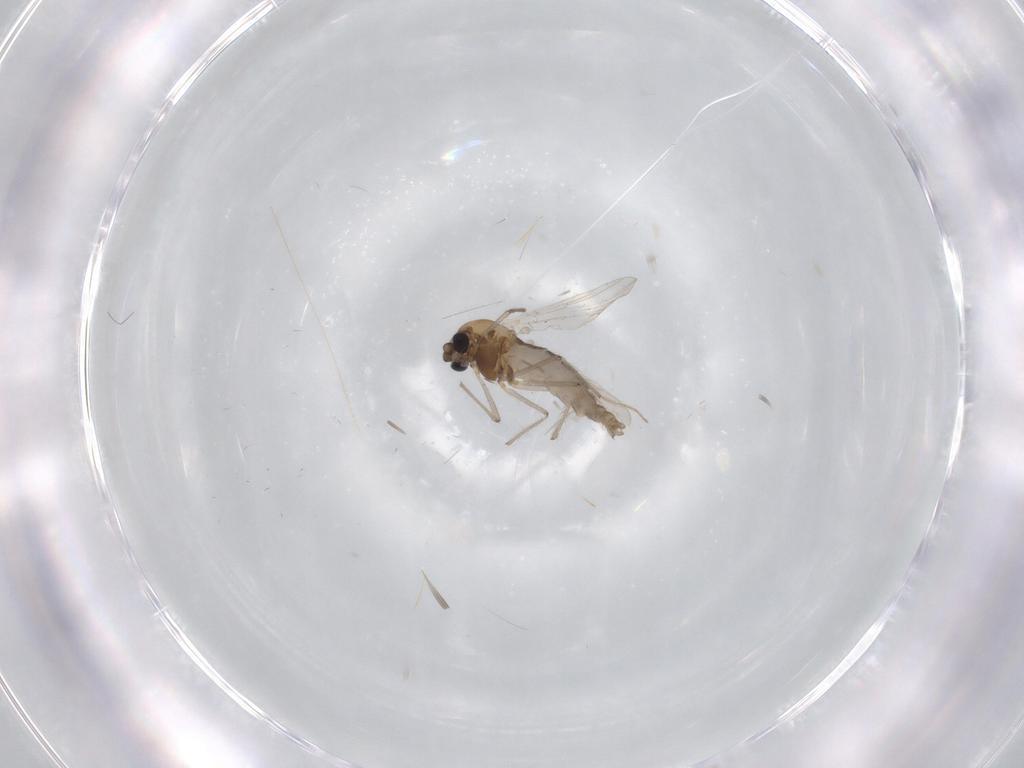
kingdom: Animalia
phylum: Arthropoda
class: Insecta
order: Diptera
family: Chironomidae
